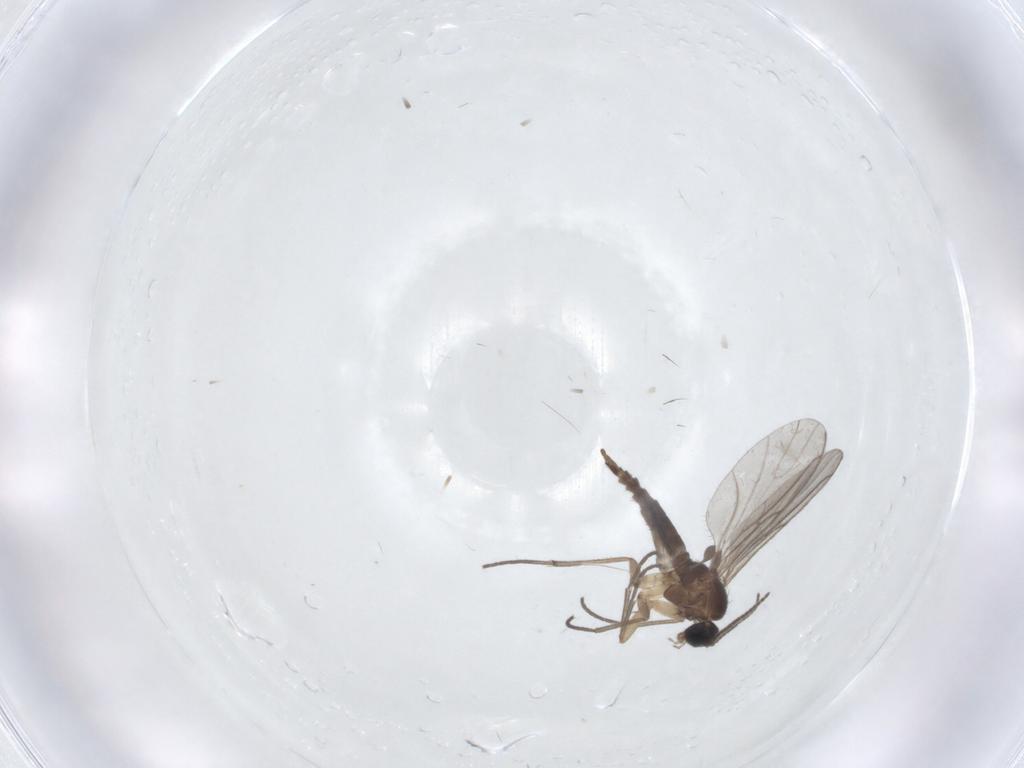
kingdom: Animalia
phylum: Arthropoda
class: Insecta
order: Diptera
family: Sciaridae
